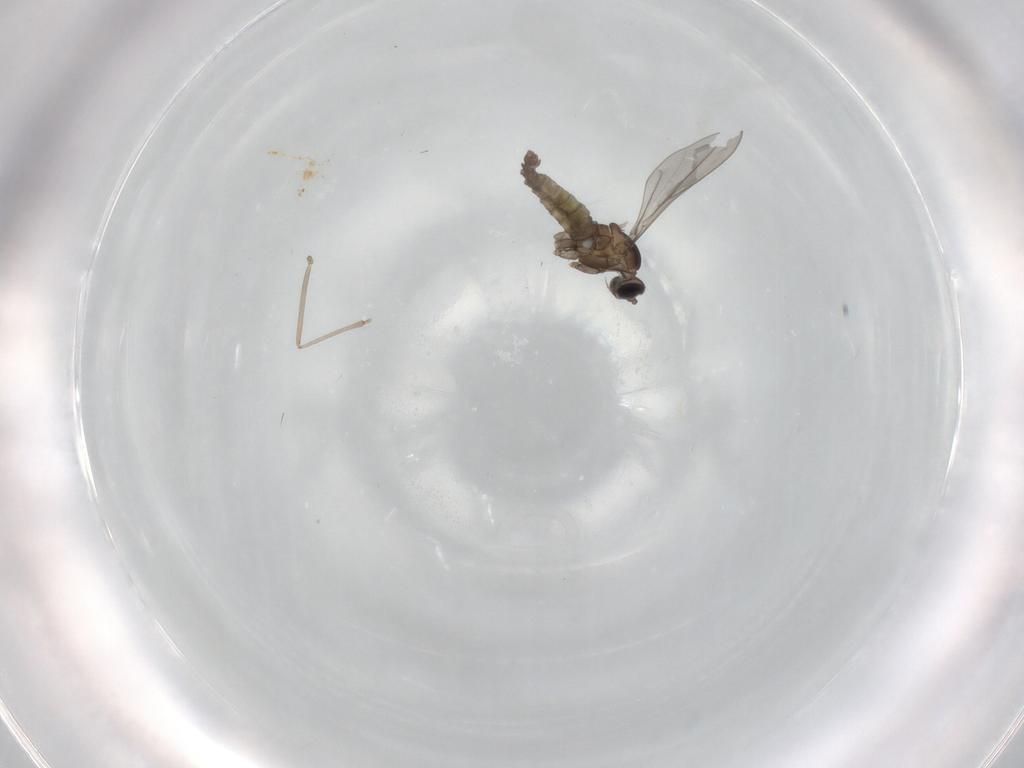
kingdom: Animalia
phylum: Arthropoda
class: Insecta
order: Diptera
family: Cecidomyiidae
